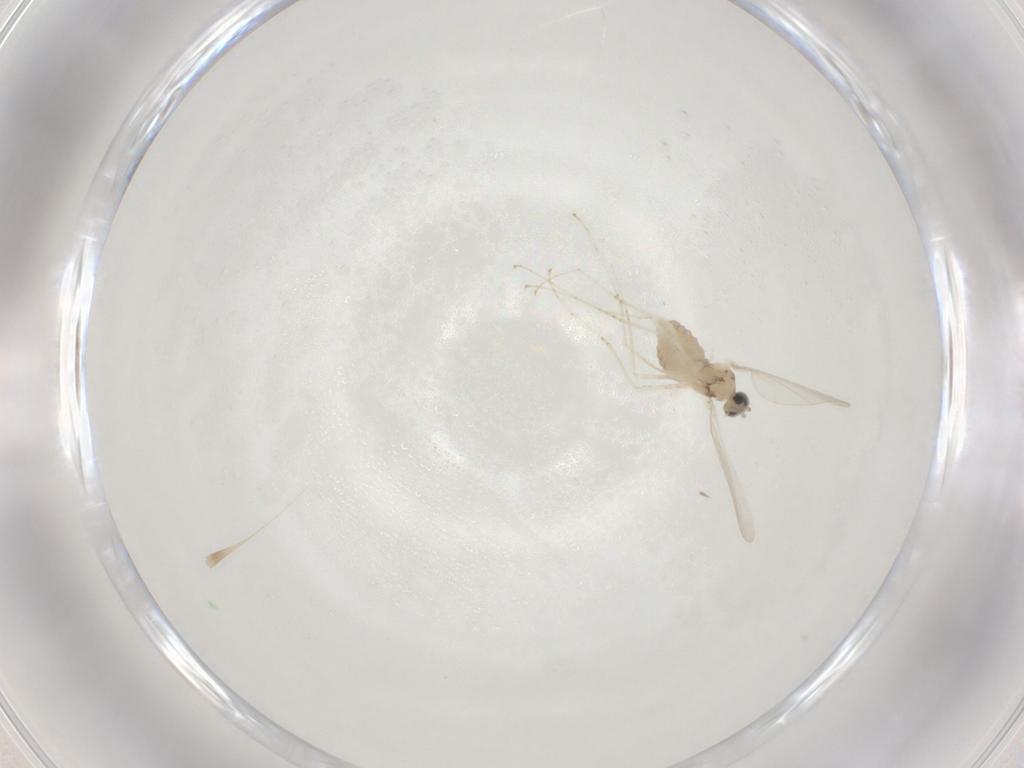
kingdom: Animalia
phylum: Arthropoda
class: Insecta
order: Diptera
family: Cecidomyiidae
